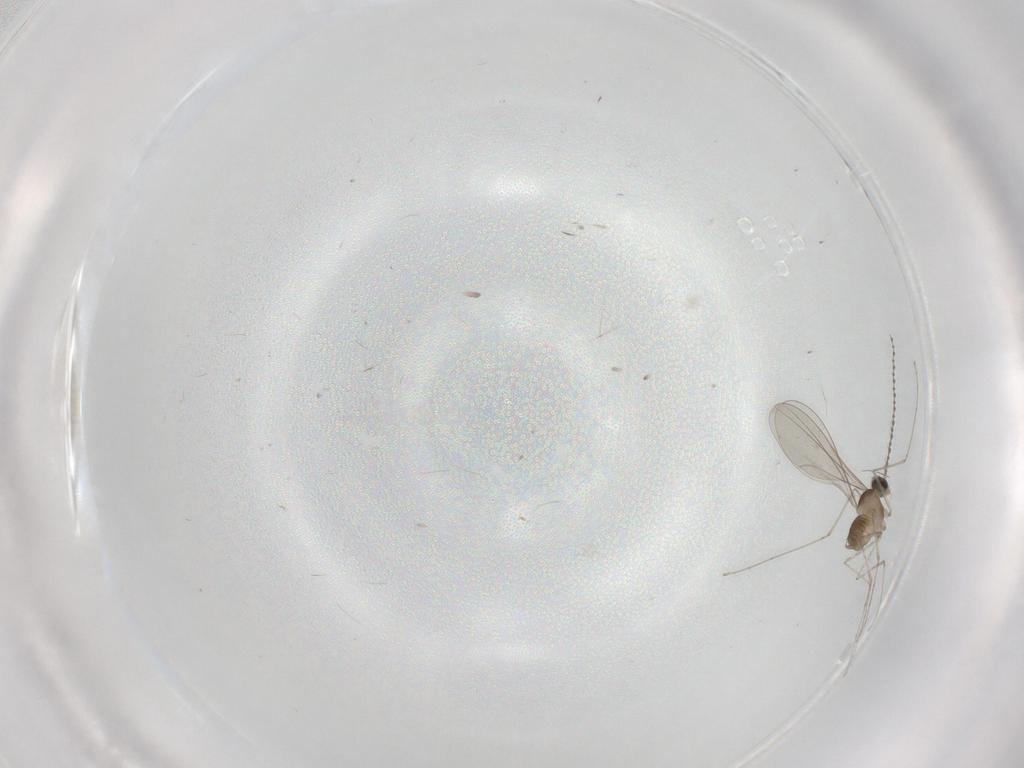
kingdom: Animalia
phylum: Arthropoda
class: Insecta
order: Diptera
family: Cecidomyiidae
